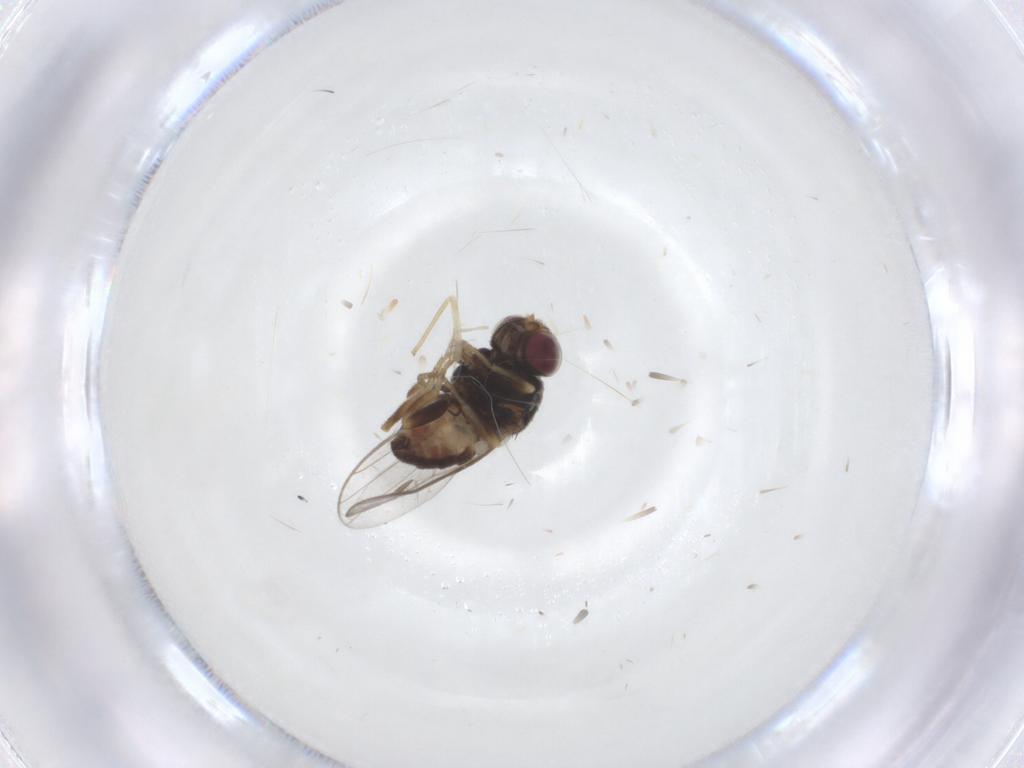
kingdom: Animalia
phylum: Arthropoda
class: Insecta
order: Diptera
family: Chloropidae
